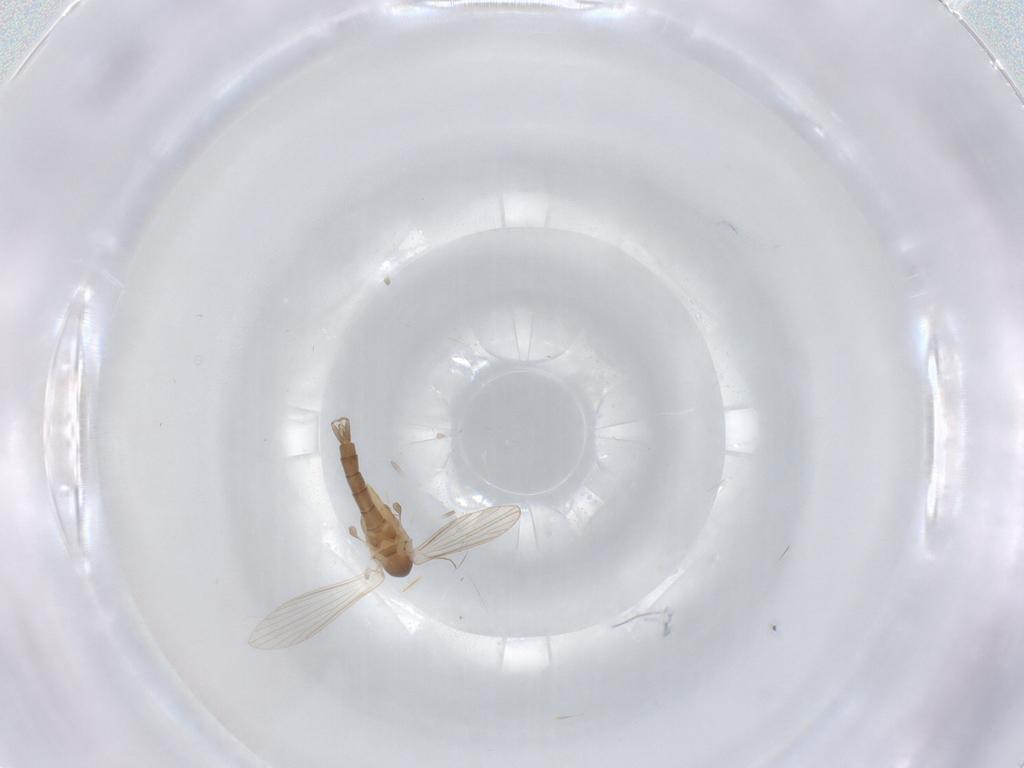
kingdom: Animalia
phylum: Arthropoda
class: Insecta
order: Diptera
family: Psychodidae
